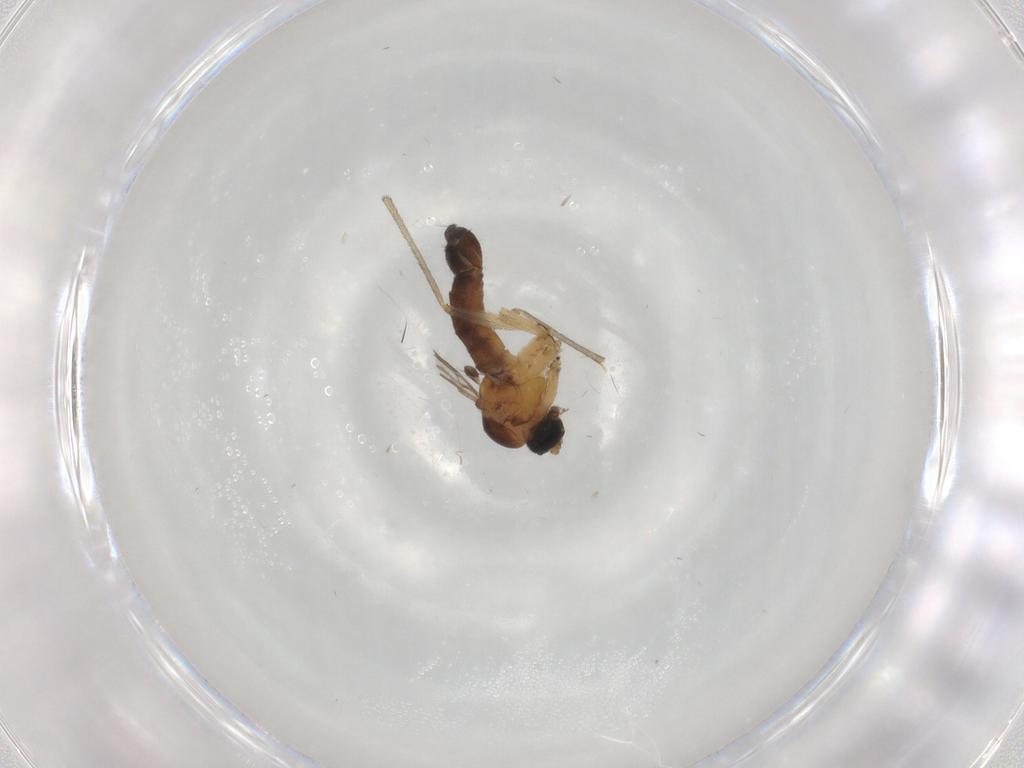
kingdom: Animalia
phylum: Arthropoda
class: Insecta
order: Diptera
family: Sciaridae
